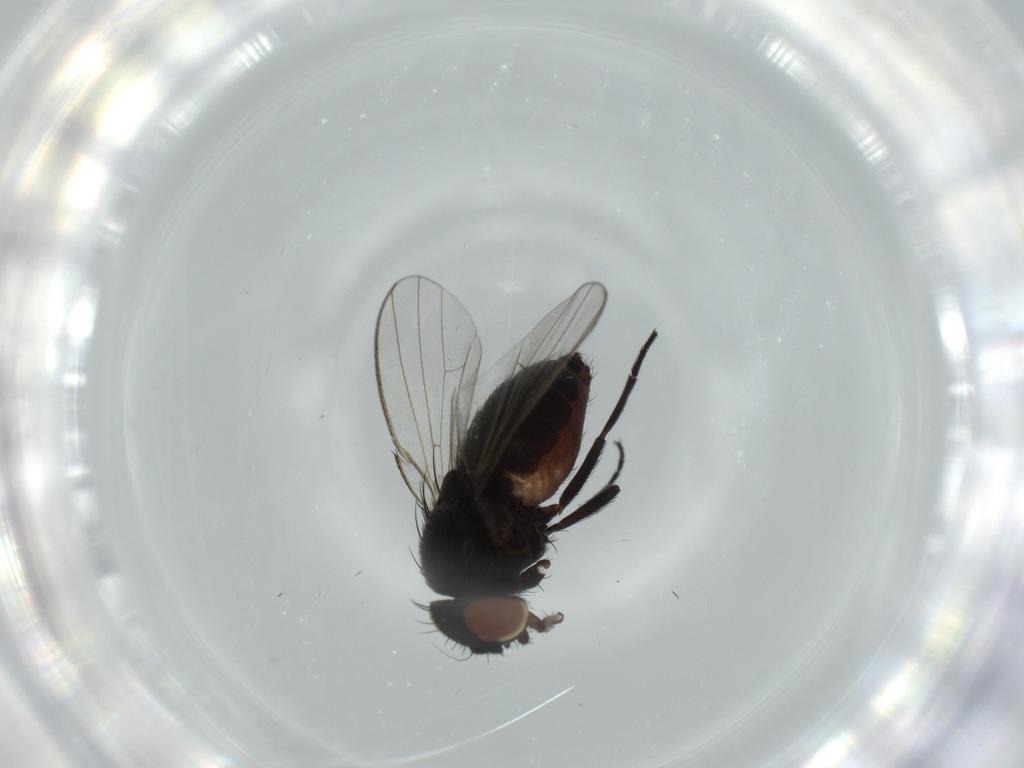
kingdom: Animalia
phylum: Arthropoda
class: Insecta
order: Diptera
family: Milichiidae
